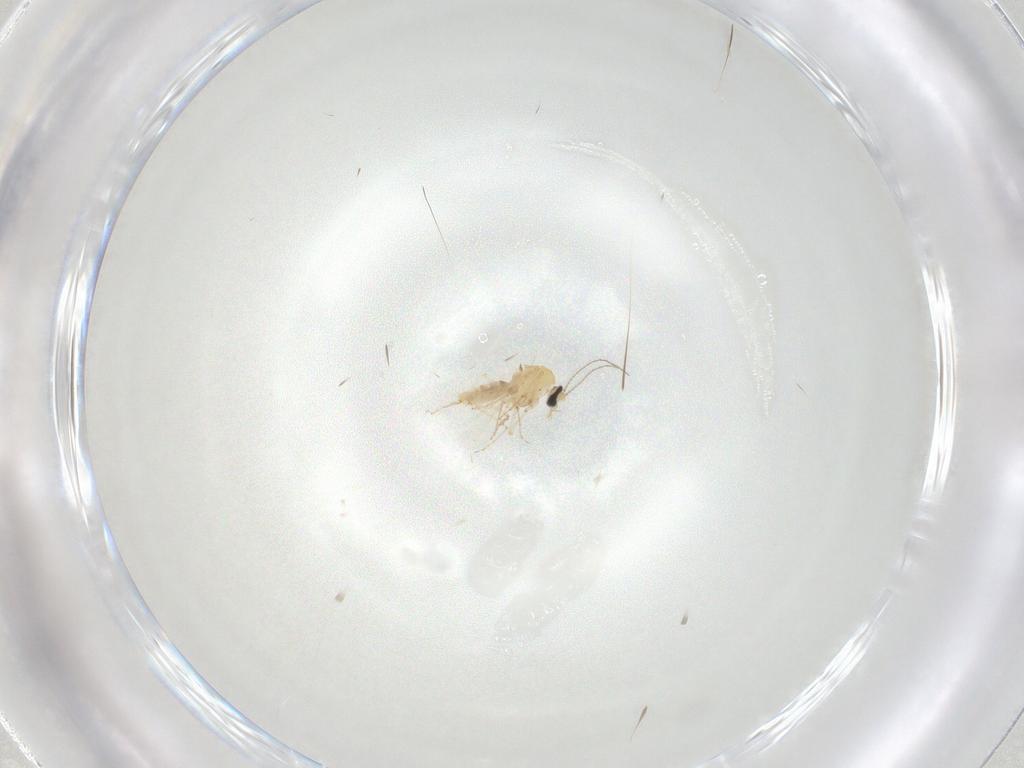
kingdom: Animalia
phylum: Arthropoda
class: Insecta
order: Diptera
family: Ceratopogonidae
